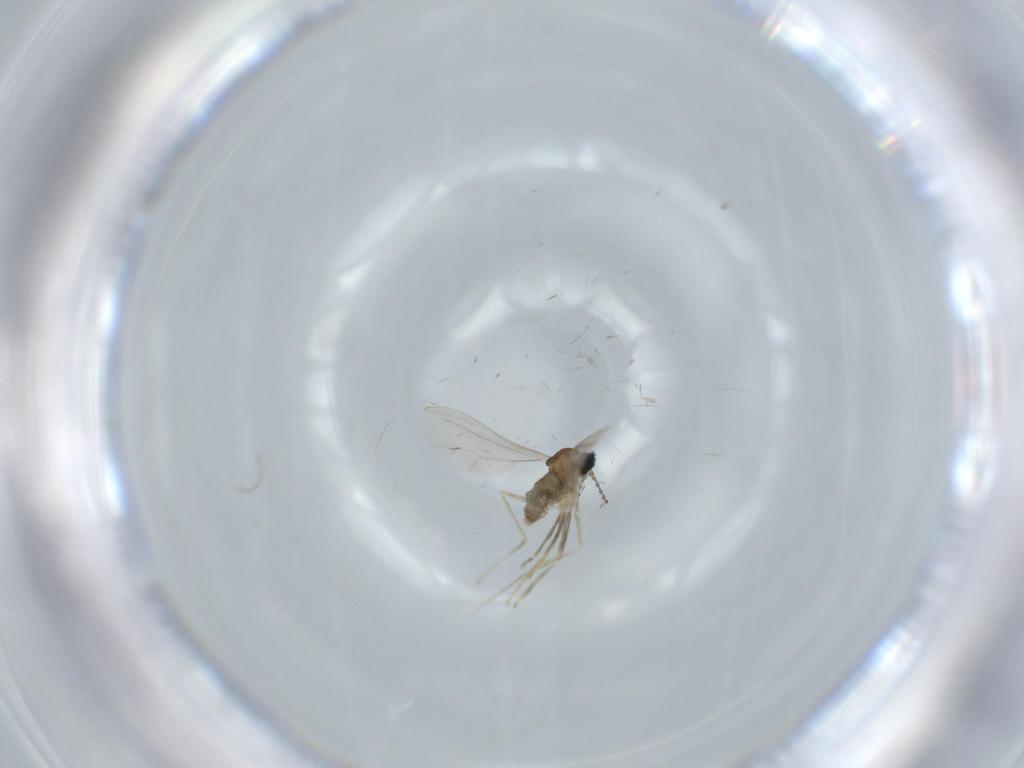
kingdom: Animalia
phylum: Arthropoda
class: Insecta
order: Diptera
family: Cecidomyiidae
